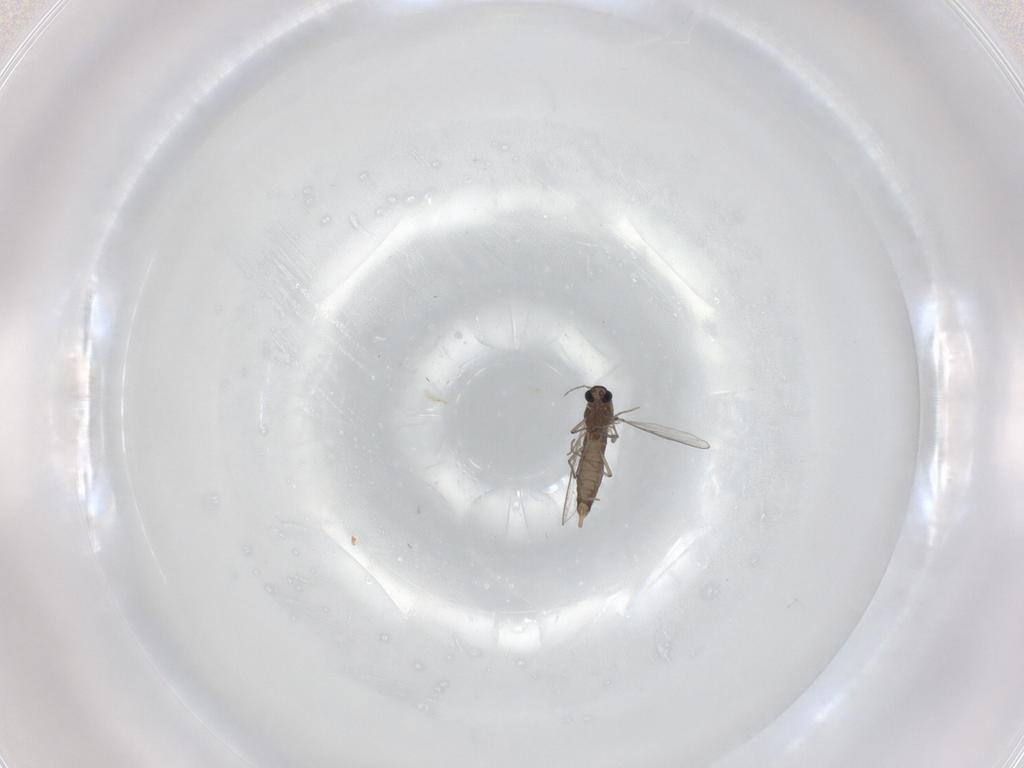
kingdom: Animalia
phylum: Arthropoda
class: Insecta
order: Diptera
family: Chironomidae
